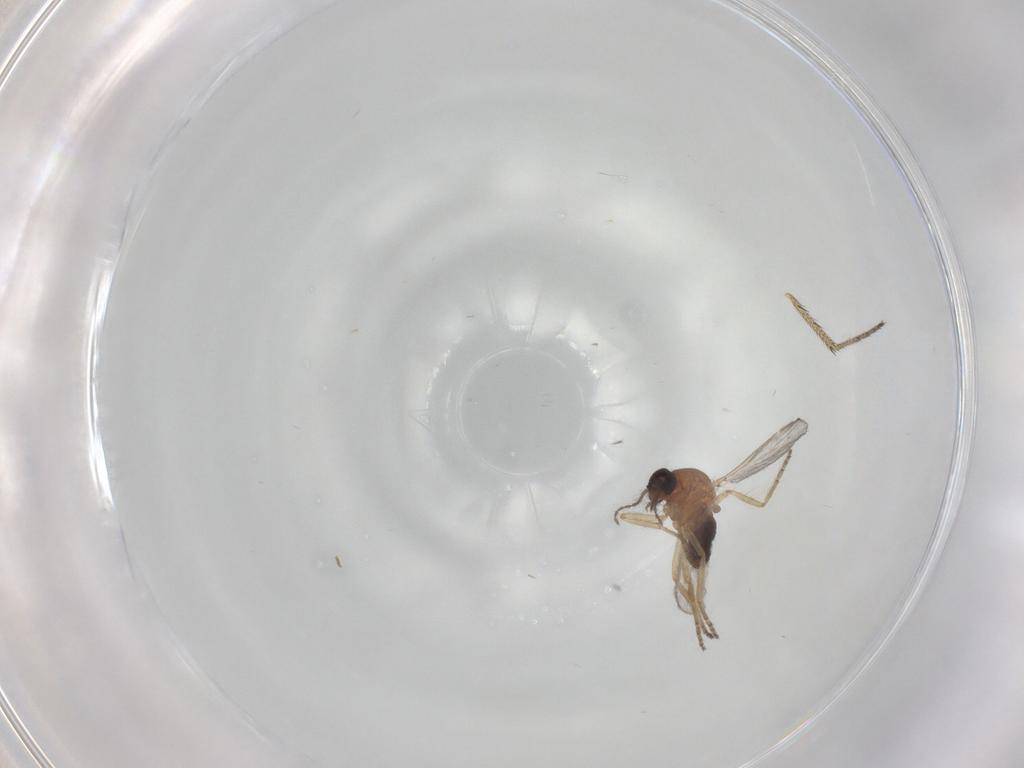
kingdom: Animalia
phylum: Arthropoda
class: Insecta
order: Diptera
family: Ceratopogonidae
